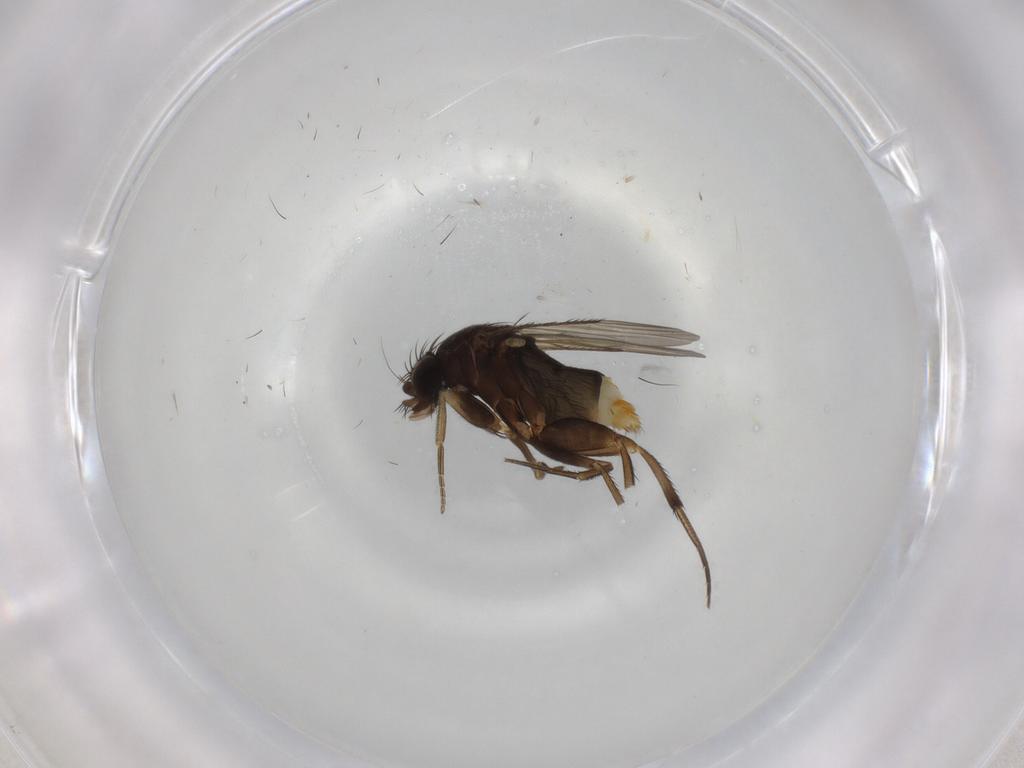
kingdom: Animalia
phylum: Arthropoda
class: Insecta
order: Diptera
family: Phoridae
